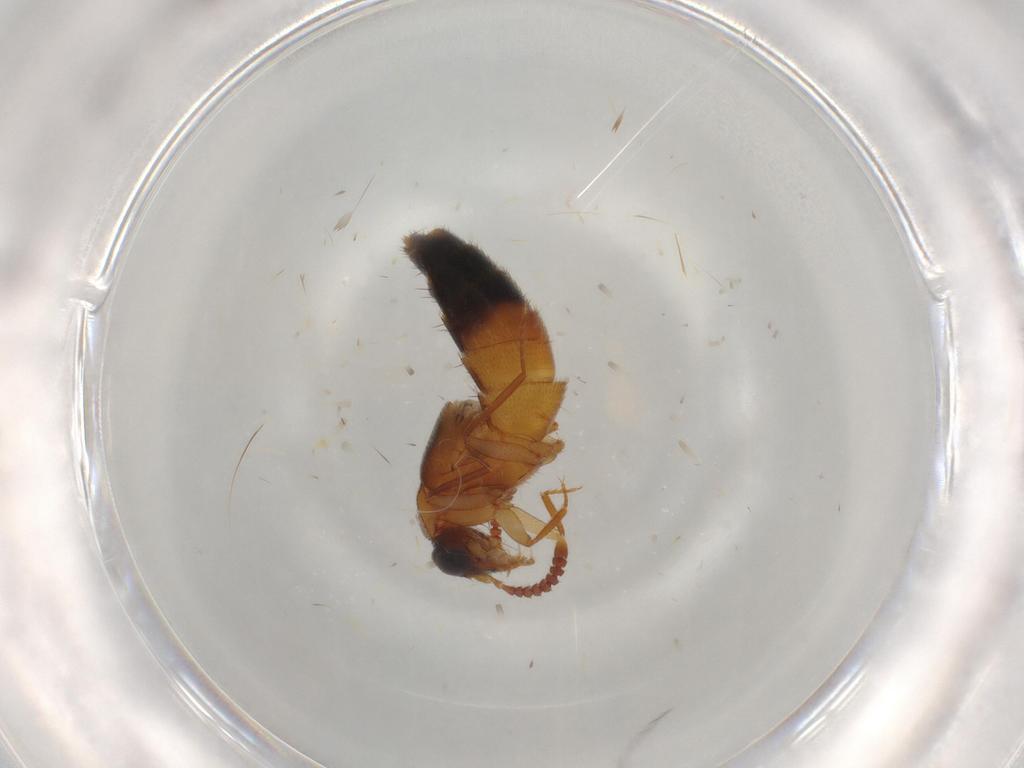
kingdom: Animalia
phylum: Arthropoda
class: Insecta
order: Coleoptera
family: Staphylinidae
